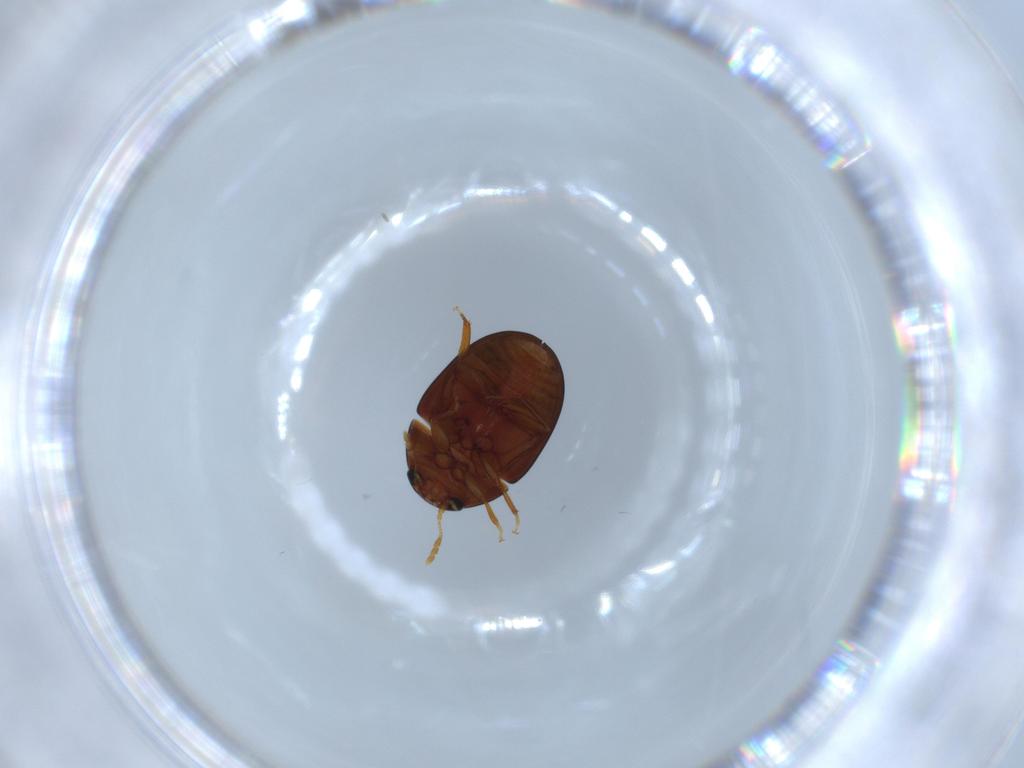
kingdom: Animalia
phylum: Arthropoda
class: Insecta
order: Coleoptera
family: Phalacridae
